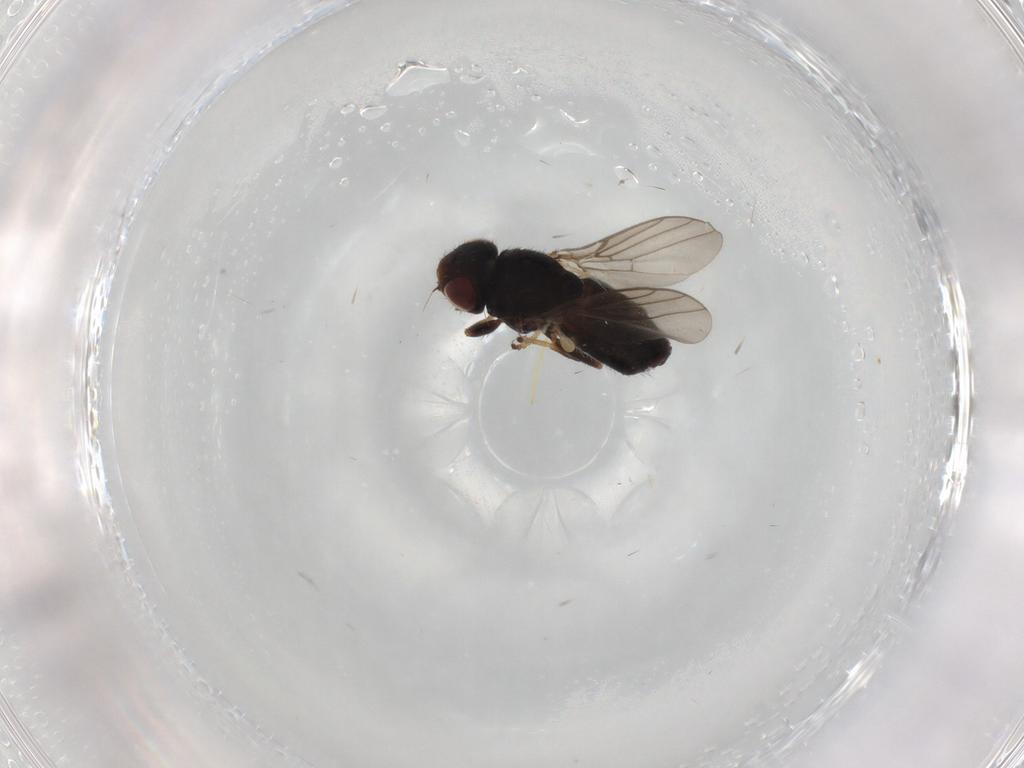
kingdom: Animalia
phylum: Arthropoda
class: Insecta
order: Diptera
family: Chloropidae
